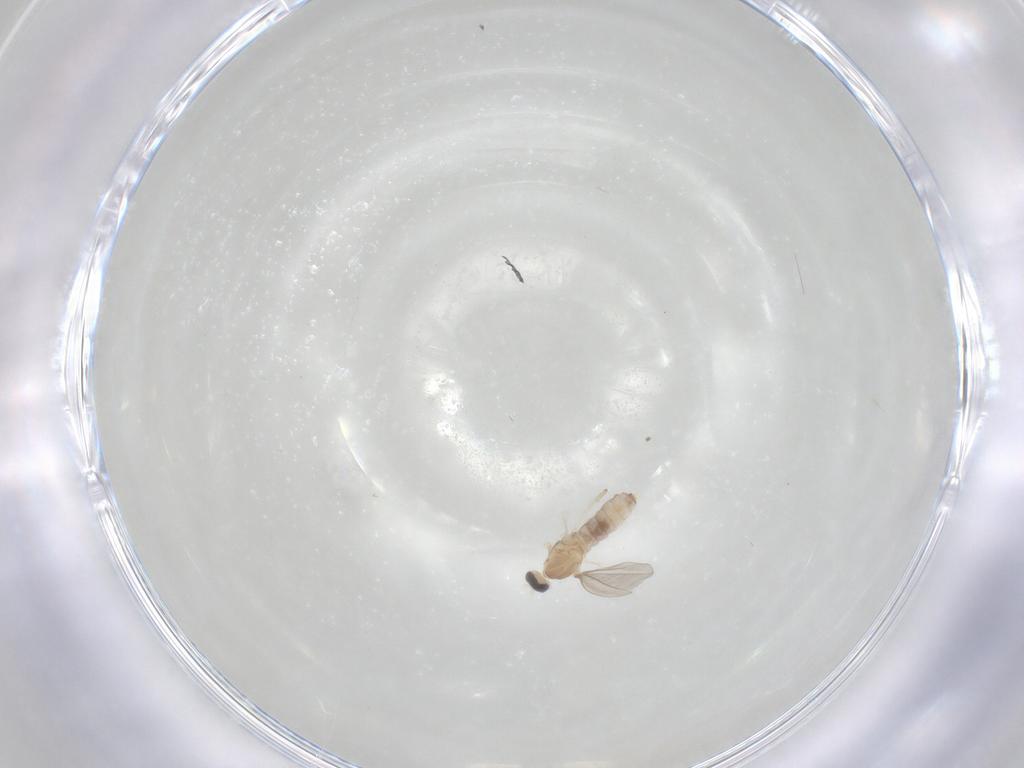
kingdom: Animalia
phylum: Arthropoda
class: Insecta
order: Diptera
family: Cecidomyiidae
